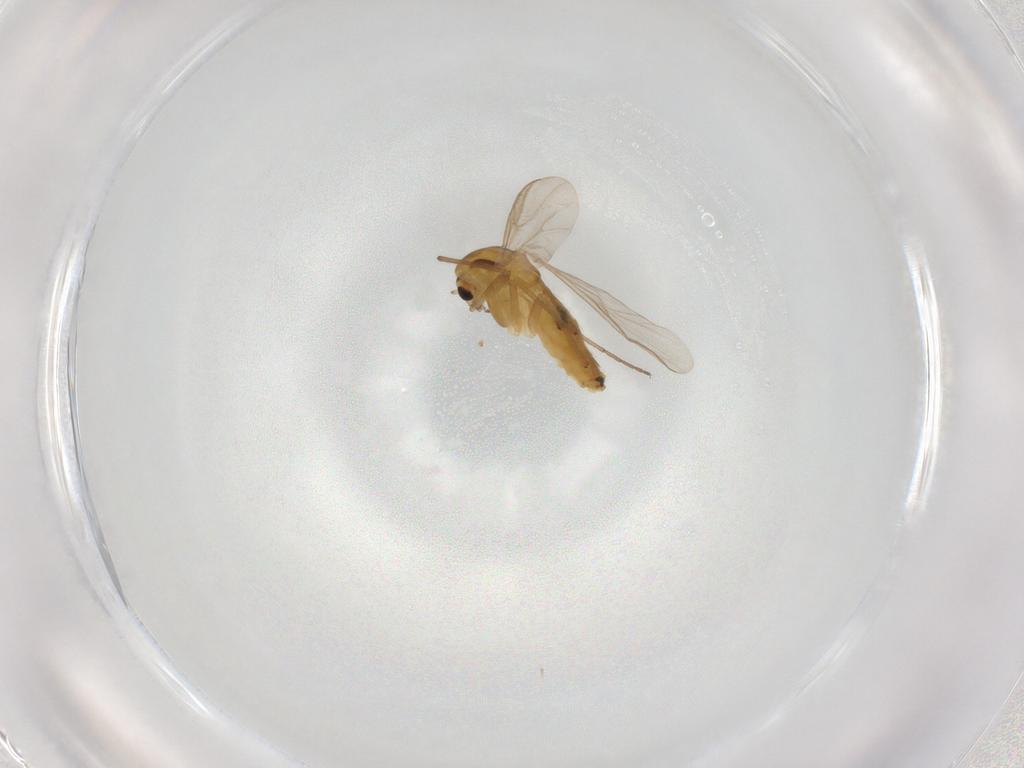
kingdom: Animalia
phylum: Arthropoda
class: Insecta
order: Diptera
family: Chironomidae
